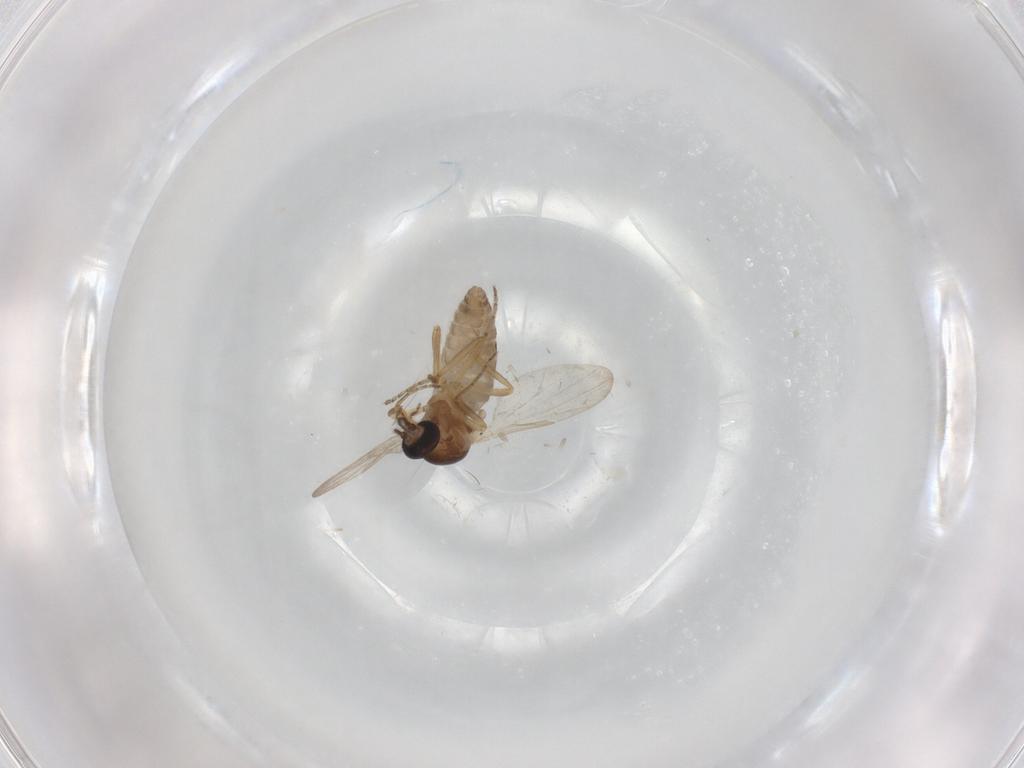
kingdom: Animalia
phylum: Arthropoda
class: Insecta
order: Diptera
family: Ceratopogonidae
